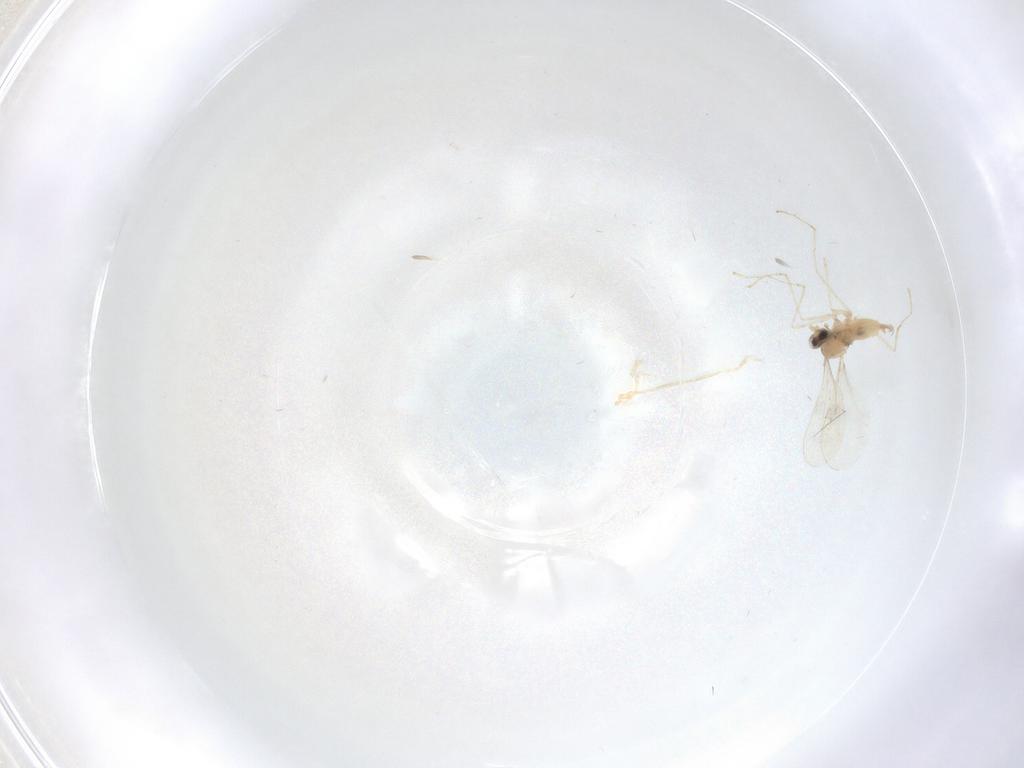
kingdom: Animalia
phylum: Arthropoda
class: Insecta
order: Diptera
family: Cecidomyiidae
